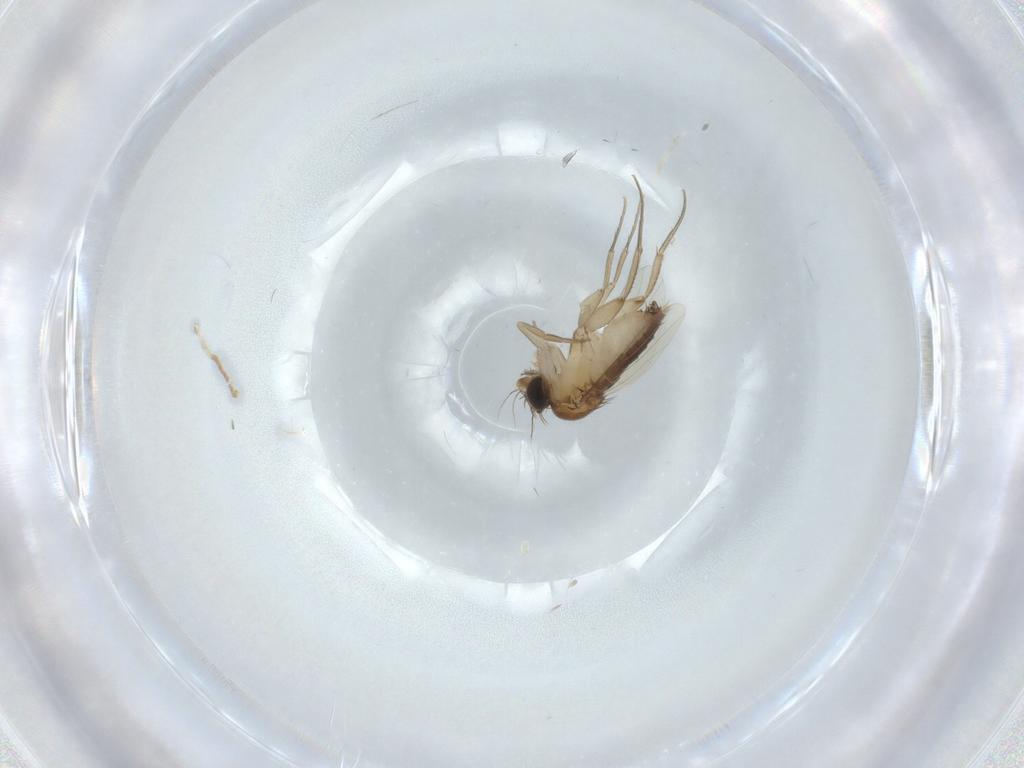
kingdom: Animalia
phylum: Arthropoda
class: Insecta
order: Diptera
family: Phoridae
